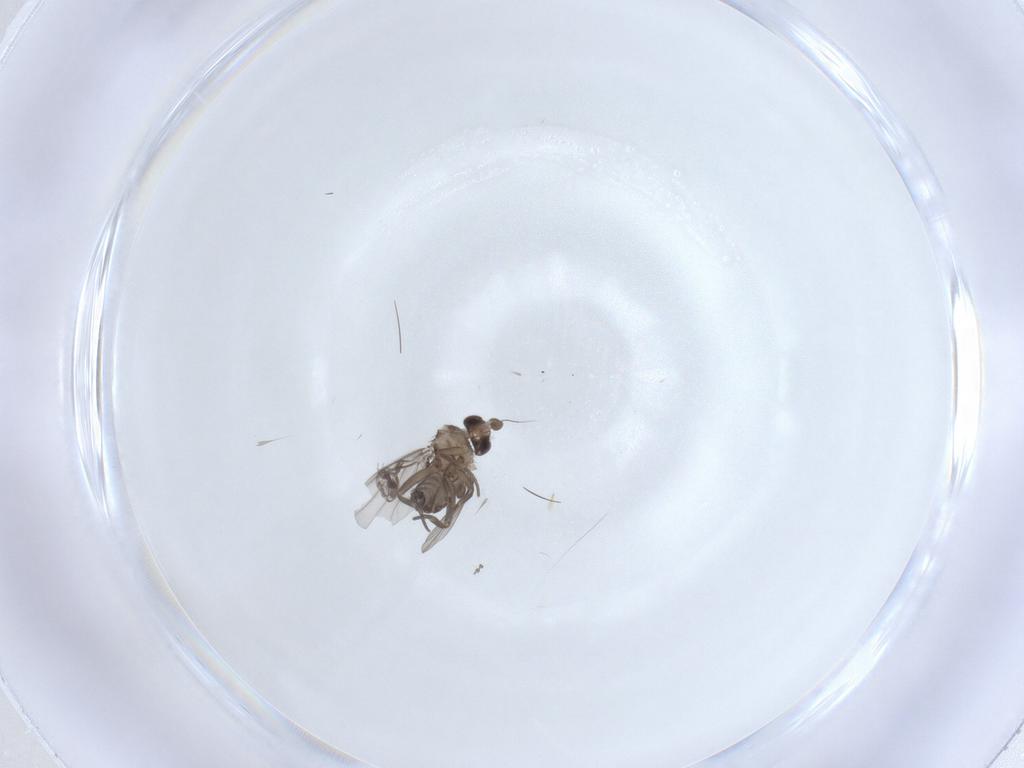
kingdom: Animalia
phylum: Arthropoda
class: Insecta
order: Diptera
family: Phoridae
